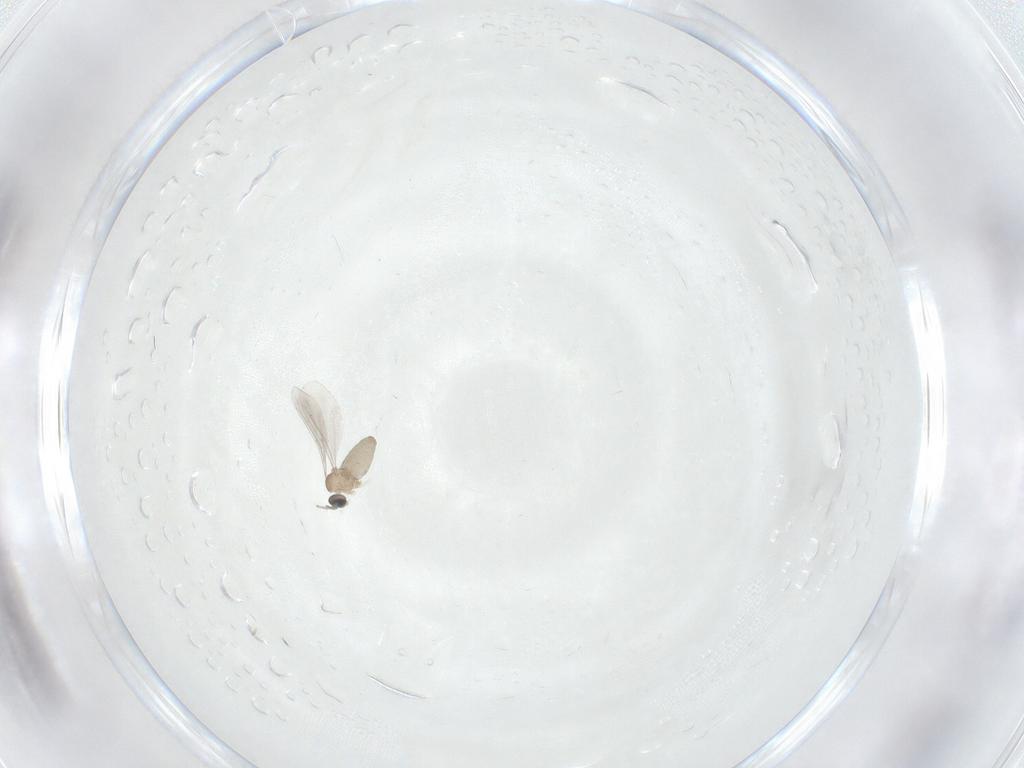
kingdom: Animalia
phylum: Arthropoda
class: Insecta
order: Diptera
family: Cecidomyiidae
